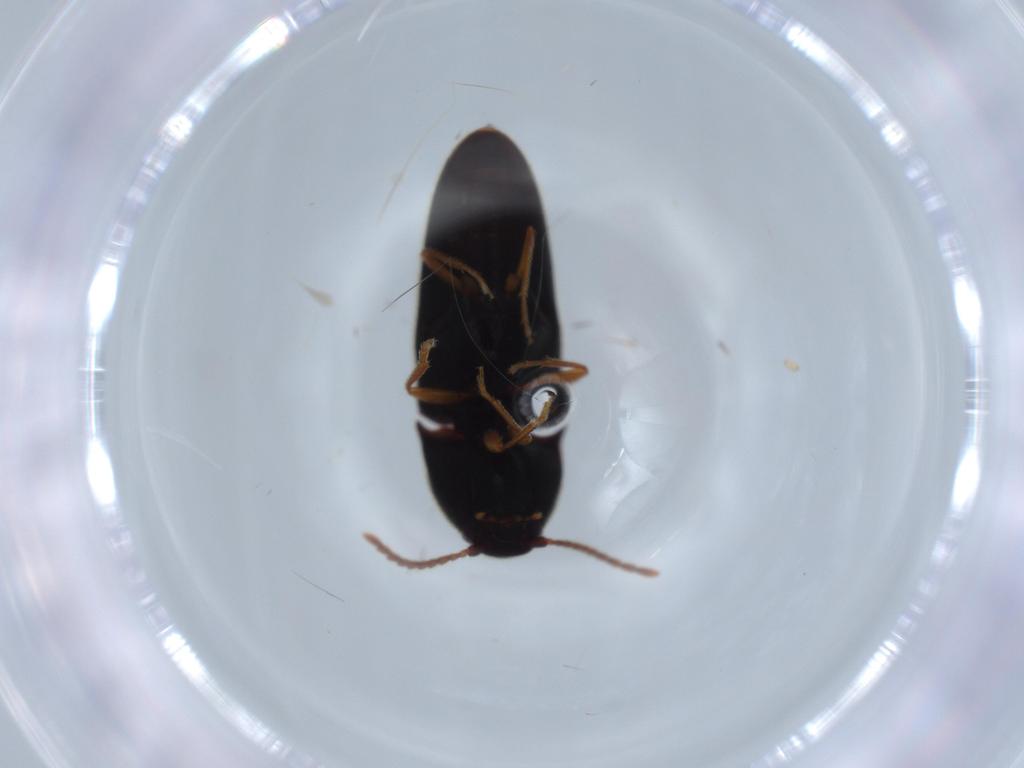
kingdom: Animalia
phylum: Arthropoda
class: Insecta
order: Coleoptera
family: Elateridae
